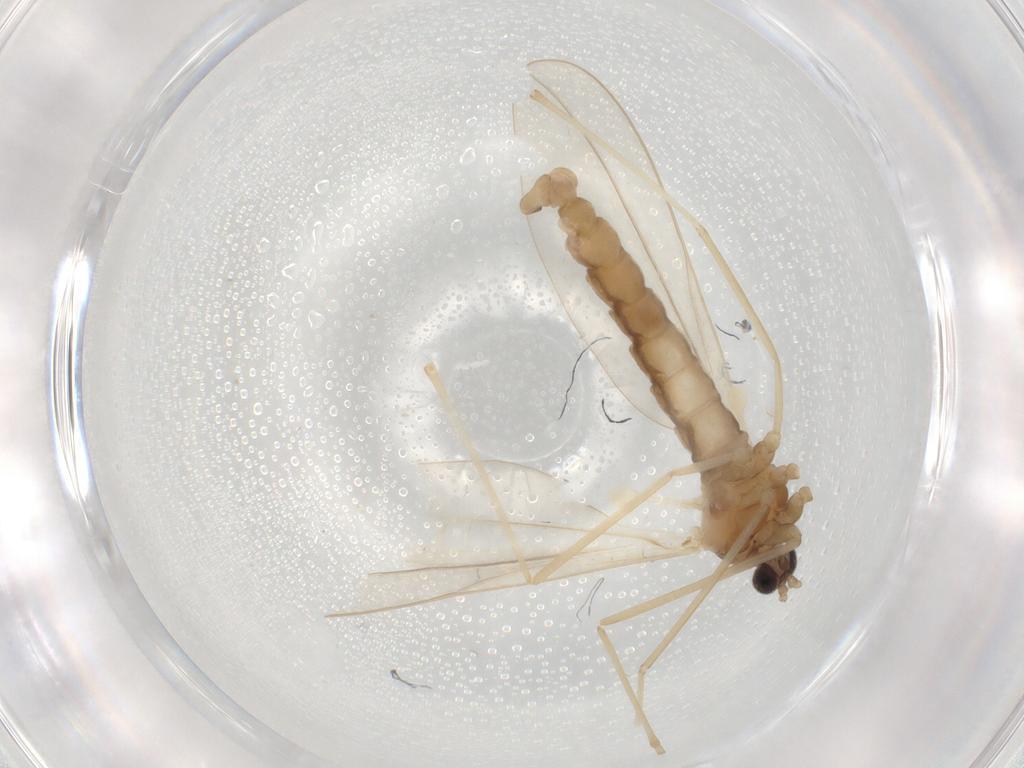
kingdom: Animalia
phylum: Arthropoda
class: Insecta
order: Diptera
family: Cecidomyiidae
